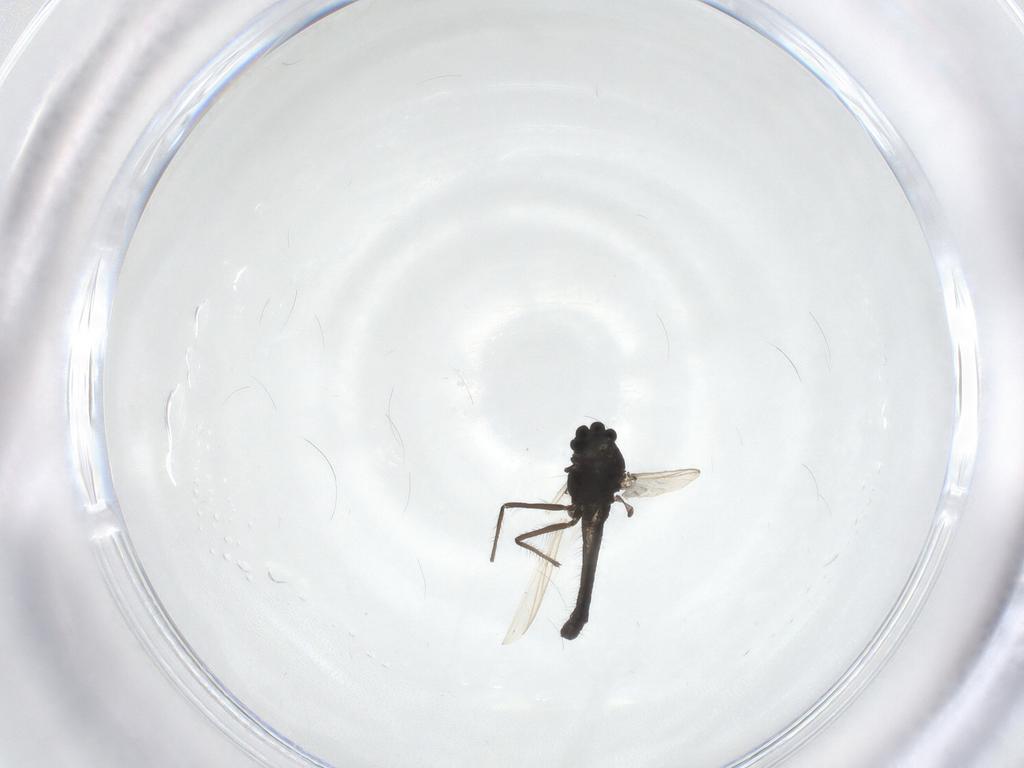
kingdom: Animalia
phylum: Arthropoda
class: Insecta
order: Diptera
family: Chironomidae
